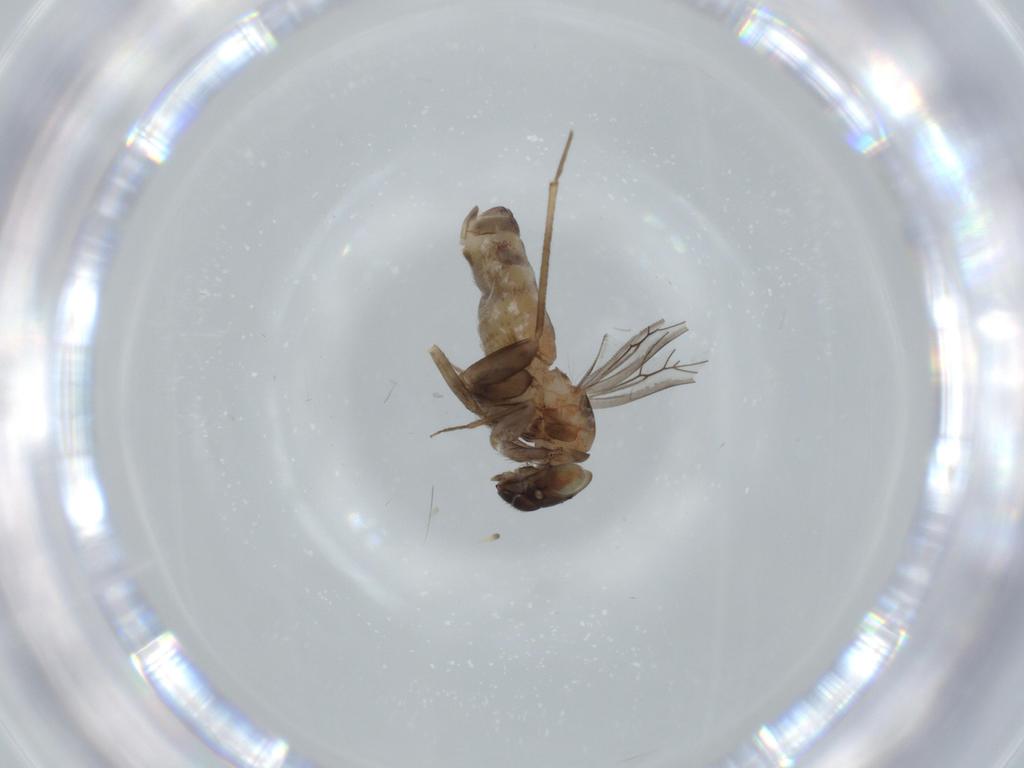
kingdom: Animalia
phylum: Arthropoda
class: Insecta
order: Psocodea
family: Lepidopsocidae
